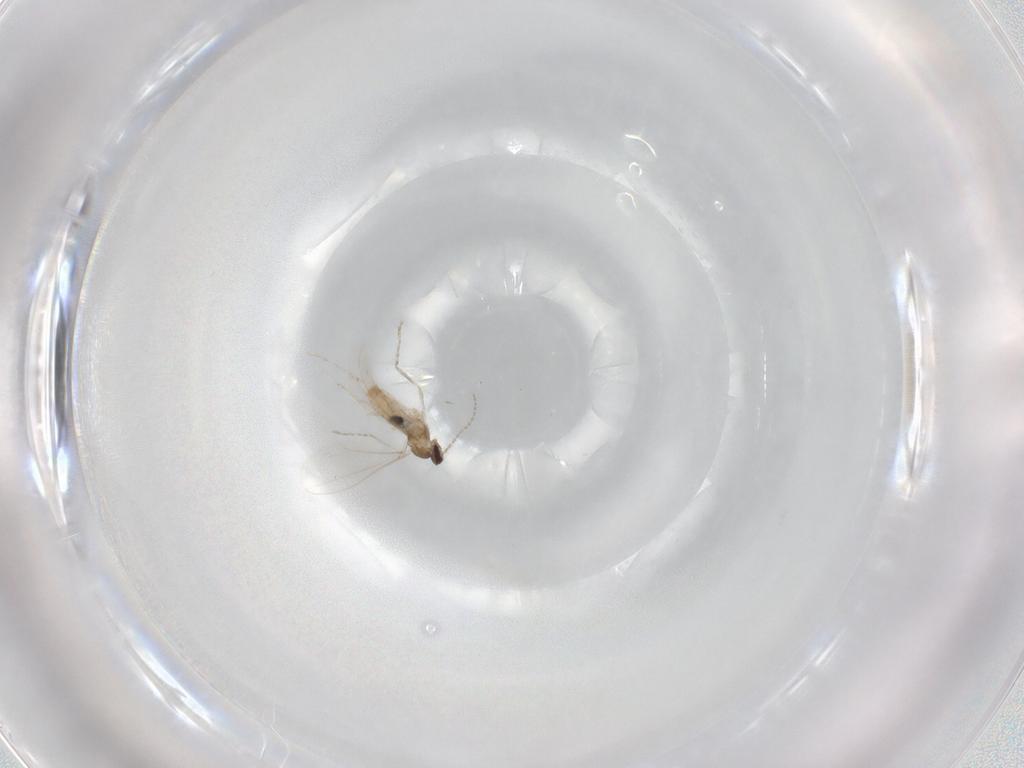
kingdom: Animalia
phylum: Arthropoda
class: Insecta
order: Diptera
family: Cecidomyiidae
